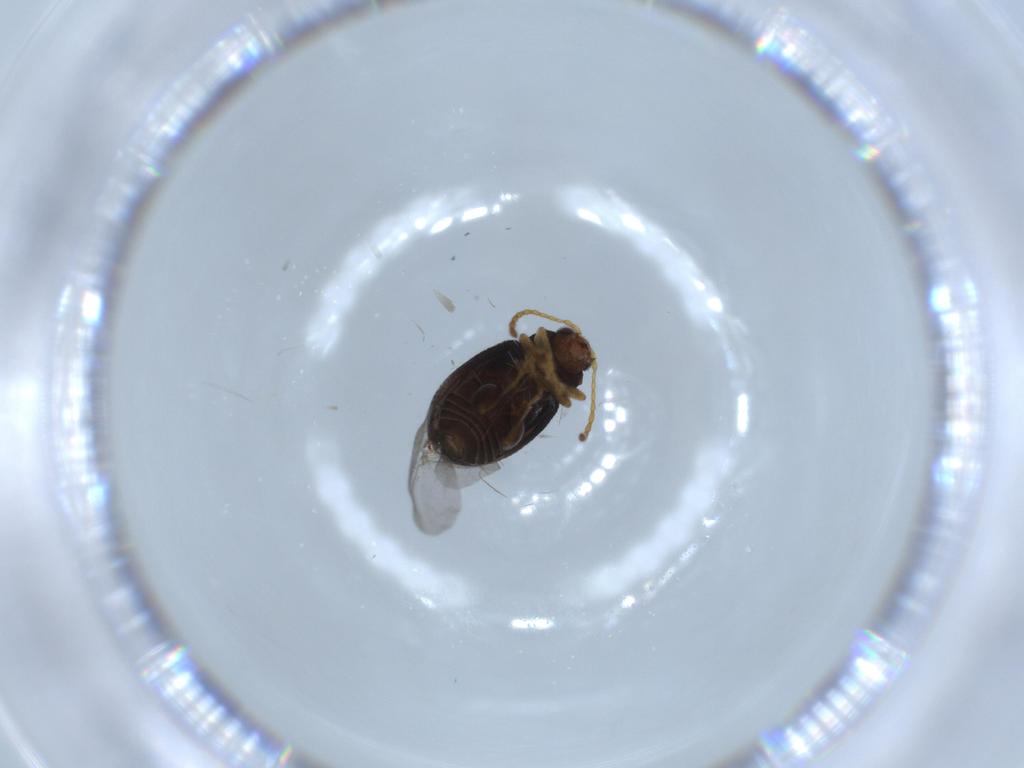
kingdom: Animalia
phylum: Arthropoda
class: Insecta
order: Coleoptera
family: Chrysomelidae
